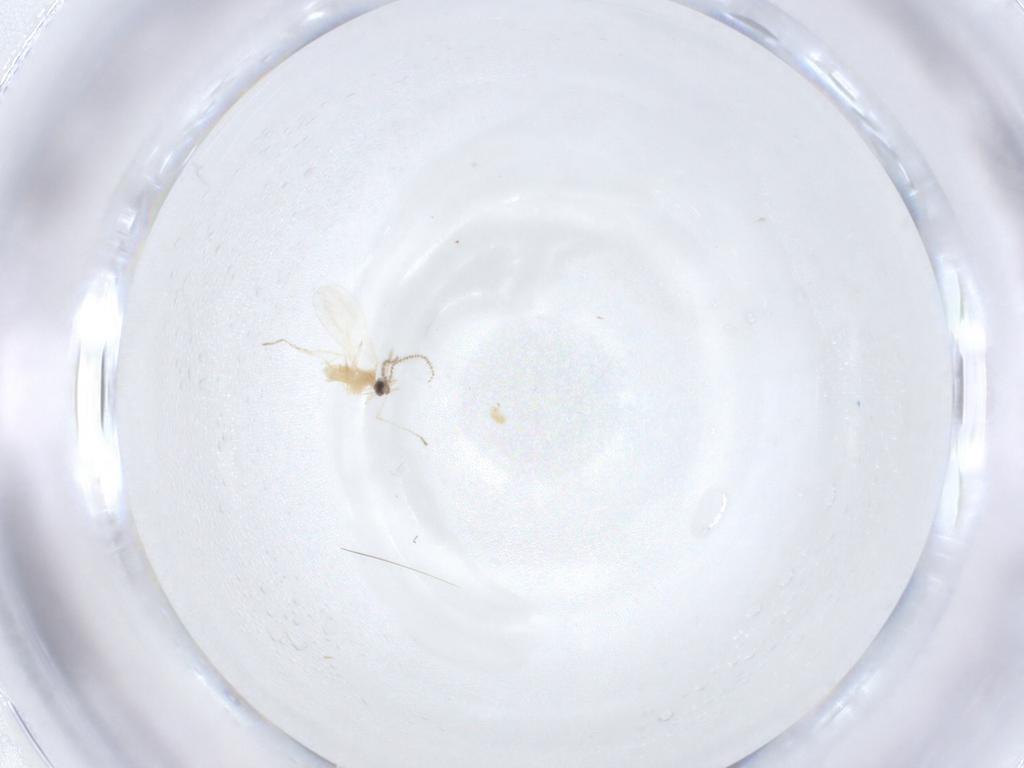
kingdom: Animalia
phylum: Arthropoda
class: Insecta
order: Diptera
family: Cecidomyiidae
